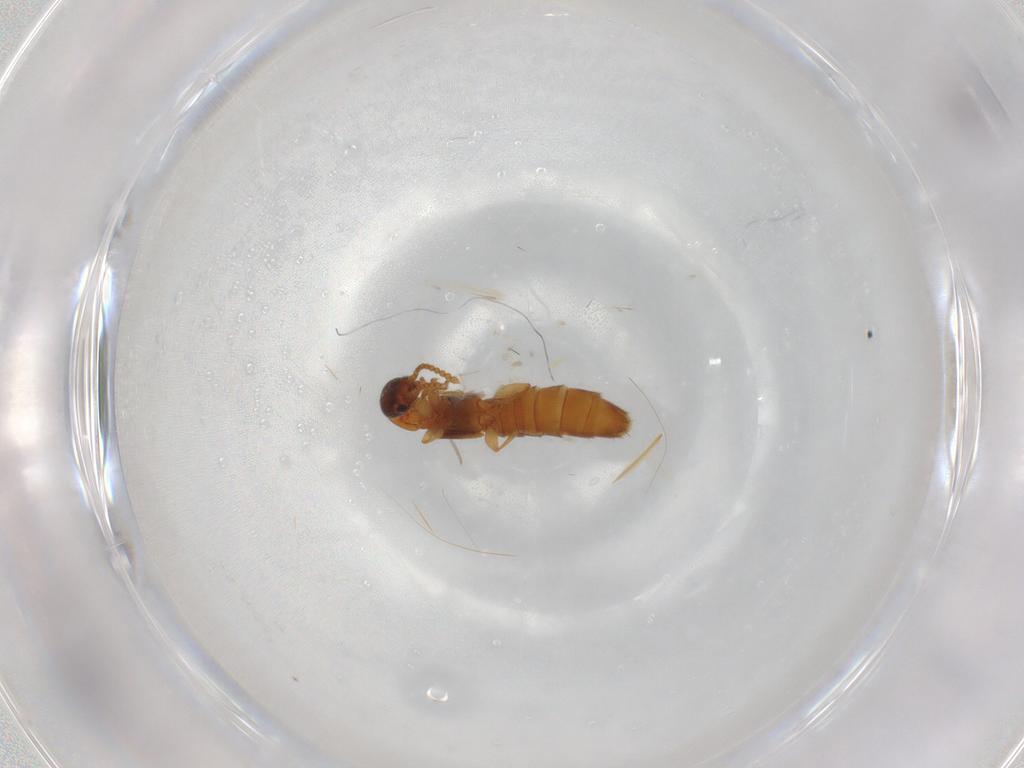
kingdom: Animalia
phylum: Arthropoda
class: Insecta
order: Coleoptera
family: Staphylinidae
